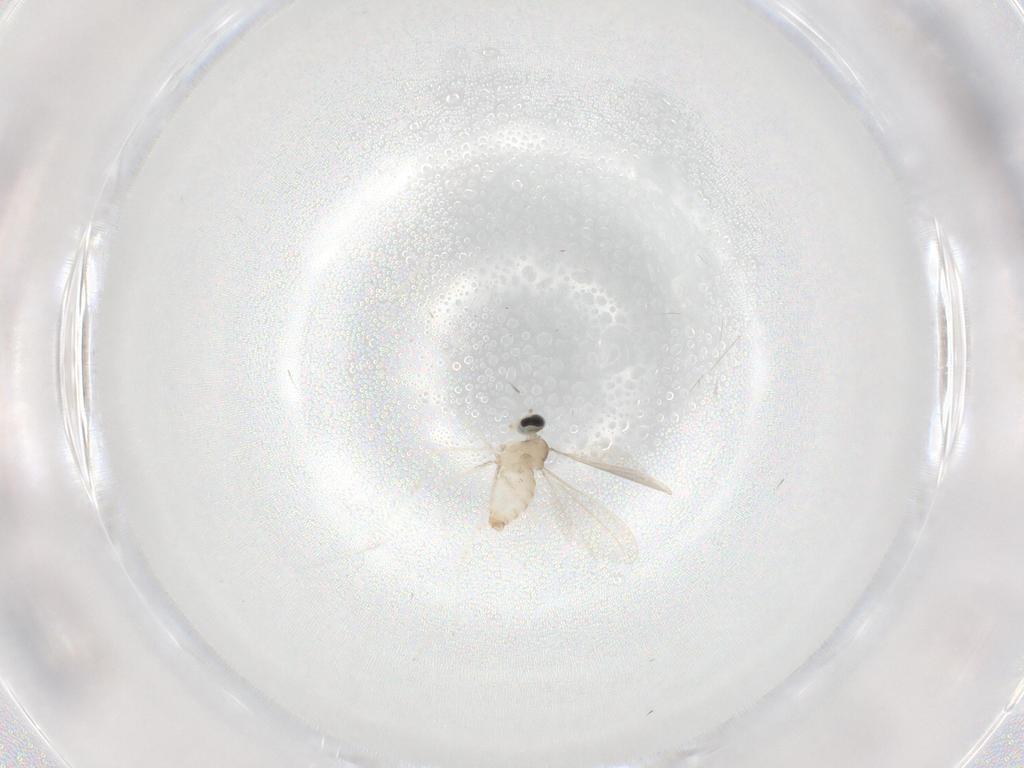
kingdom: Animalia
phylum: Arthropoda
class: Insecta
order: Diptera
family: Cecidomyiidae
